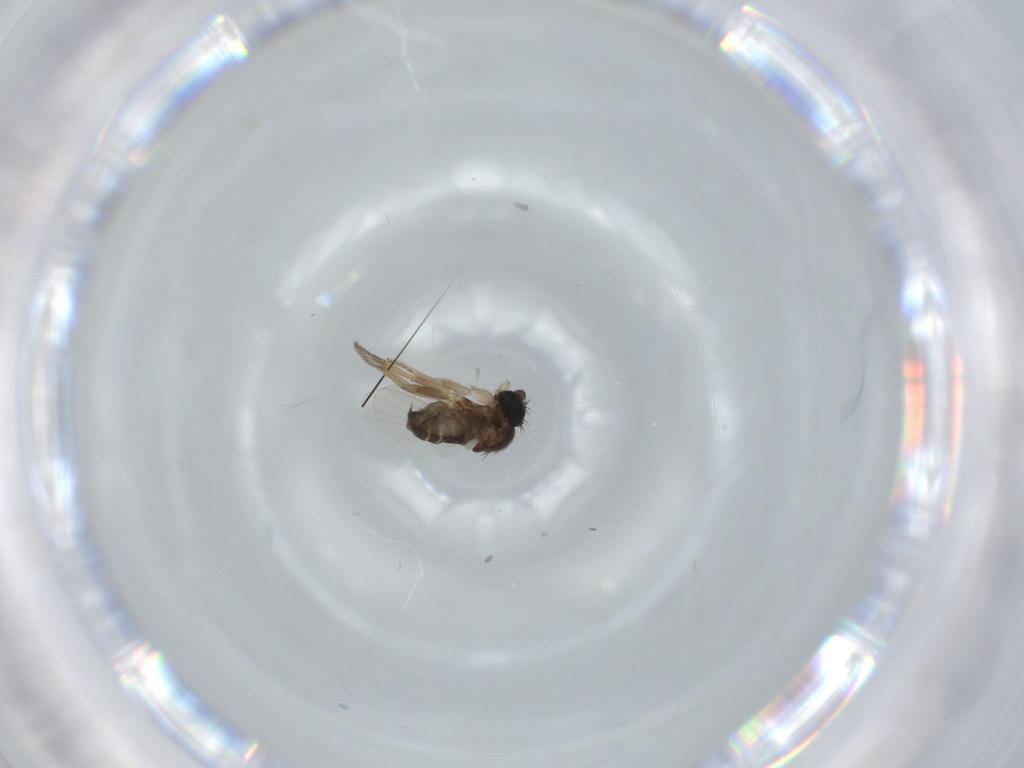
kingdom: Animalia
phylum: Arthropoda
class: Insecta
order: Diptera
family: Phoridae
